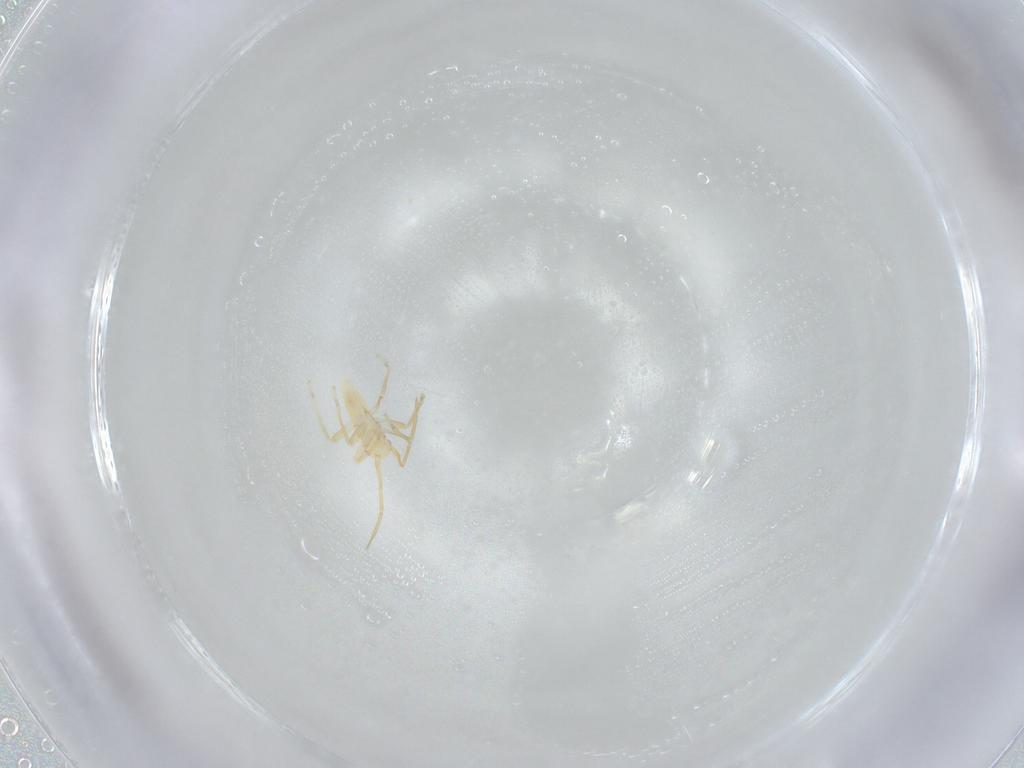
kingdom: Animalia
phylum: Arthropoda
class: Insecta
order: Hemiptera
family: Miridae
